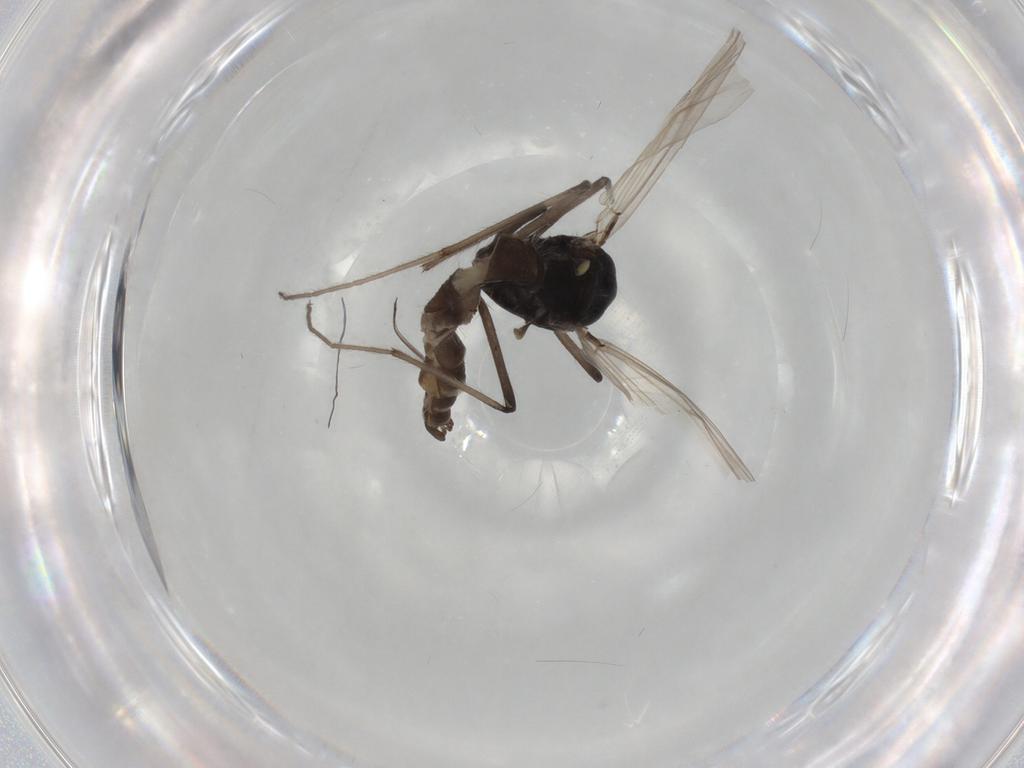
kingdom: Animalia
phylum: Arthropoda
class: Insecta
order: Diptera
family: Chironomidae
